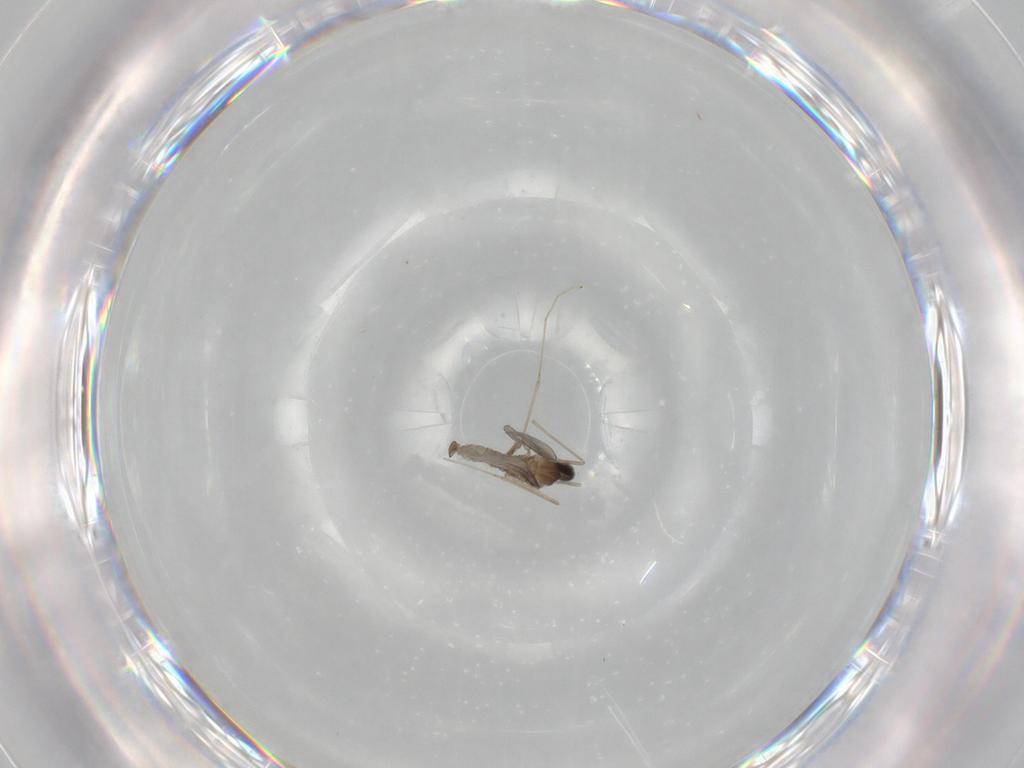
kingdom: Animalia
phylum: Arthropoda
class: Insecta
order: Diptera
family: Cecidomyiidae
